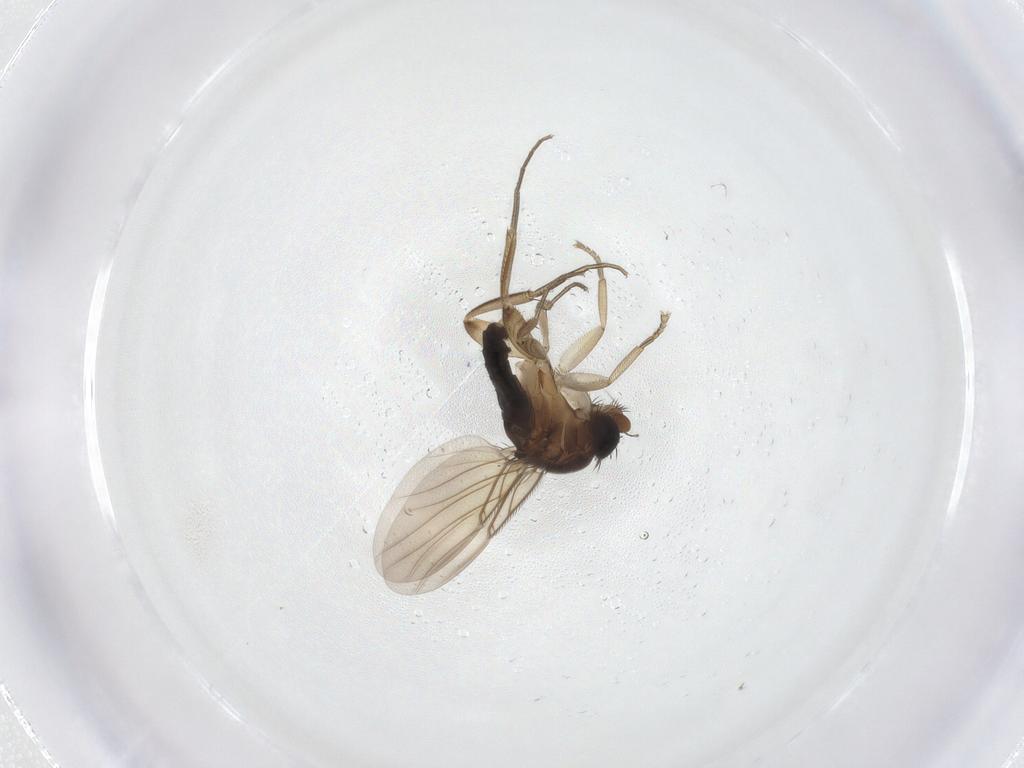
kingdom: Animalia
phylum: Arthropoda
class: Insecta
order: Diptera
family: Phoridae
